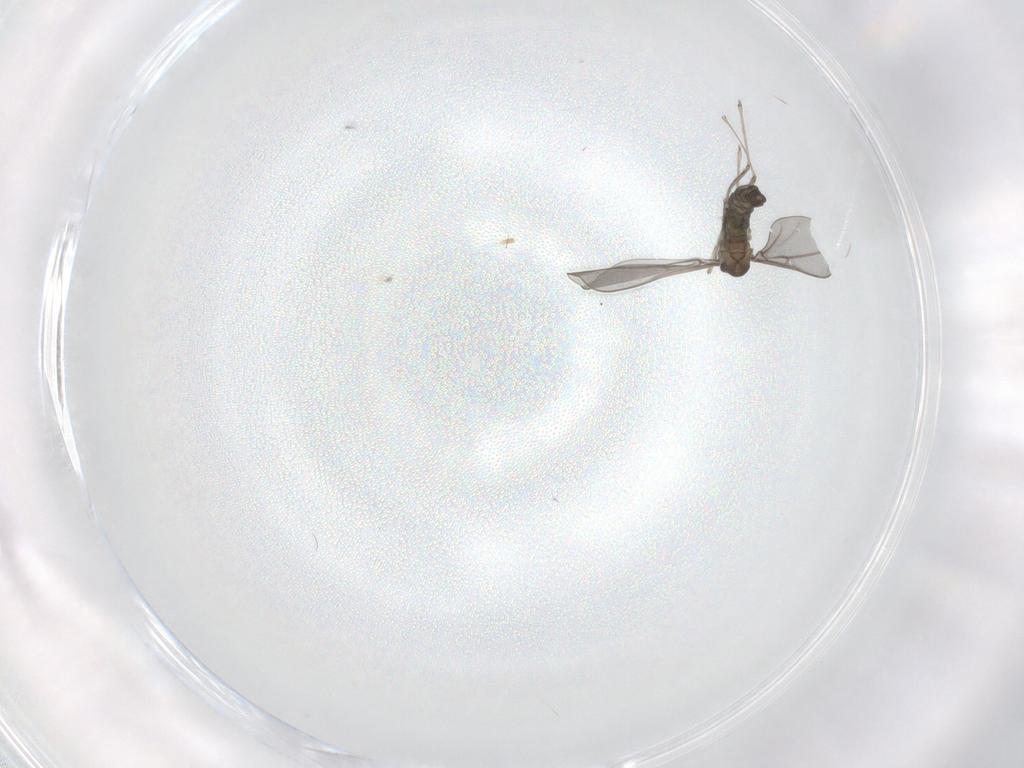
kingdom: Animalia
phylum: Arthropoda
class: Insecta
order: Diptera
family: Cecidomyiidae
